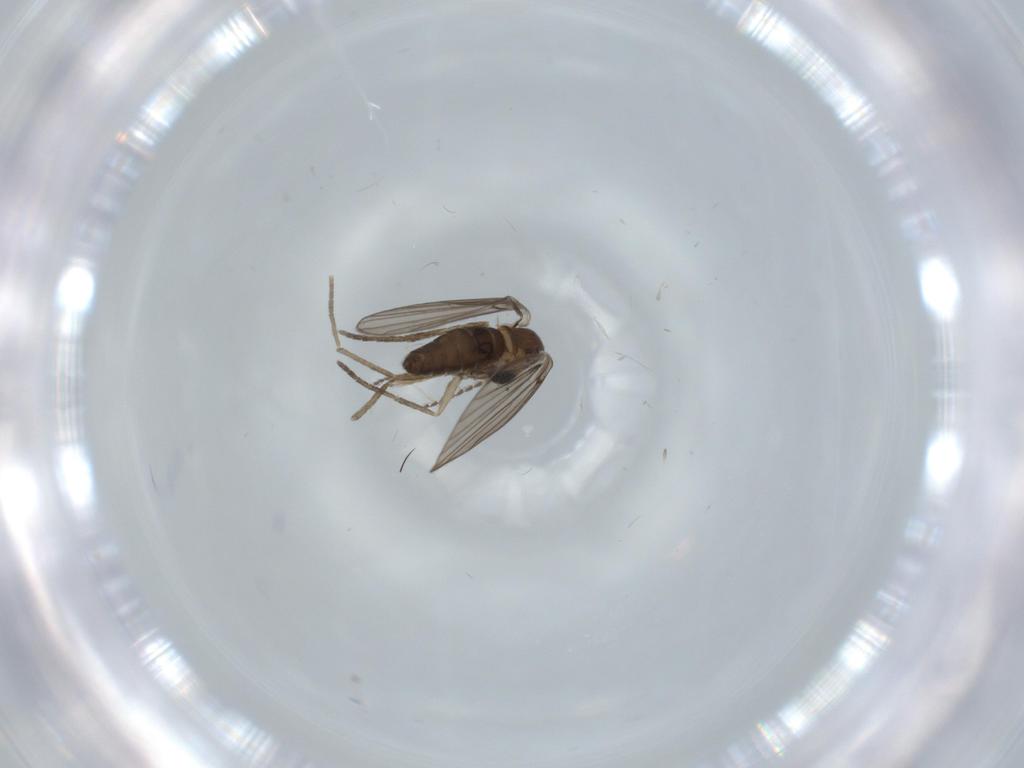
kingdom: Animalia
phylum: Arthropoda
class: Insecta
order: Diptera
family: Psychodidae
